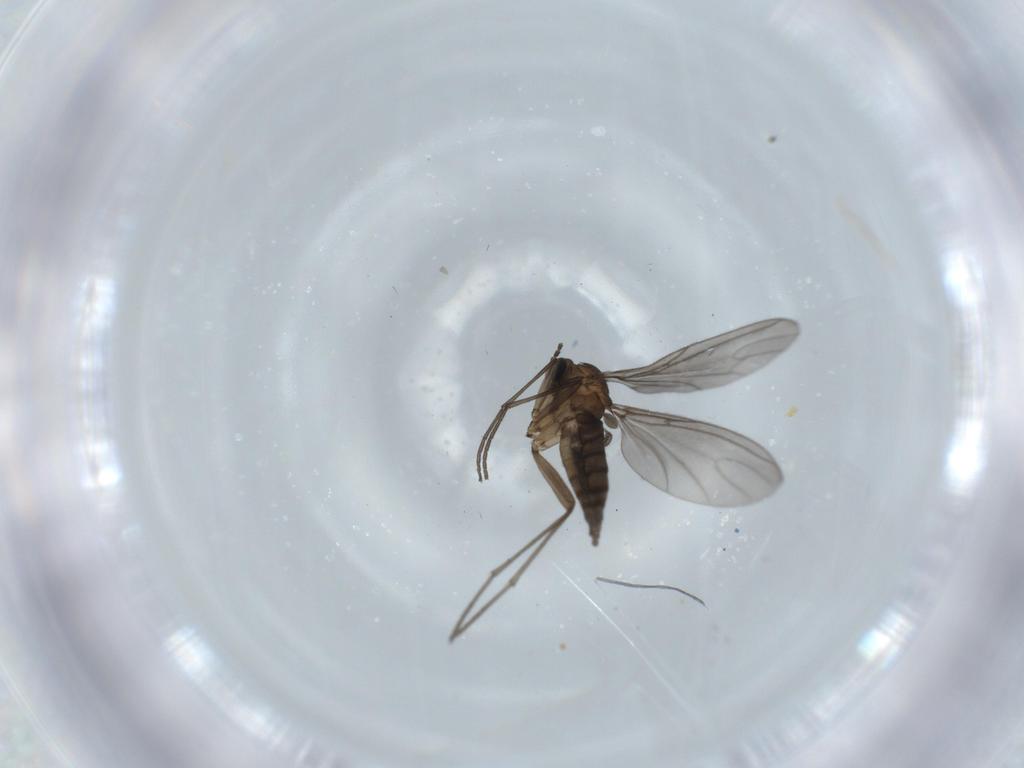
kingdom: Animalia
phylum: Arthropoda
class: Insecta
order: Diptera
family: Sciaridae
